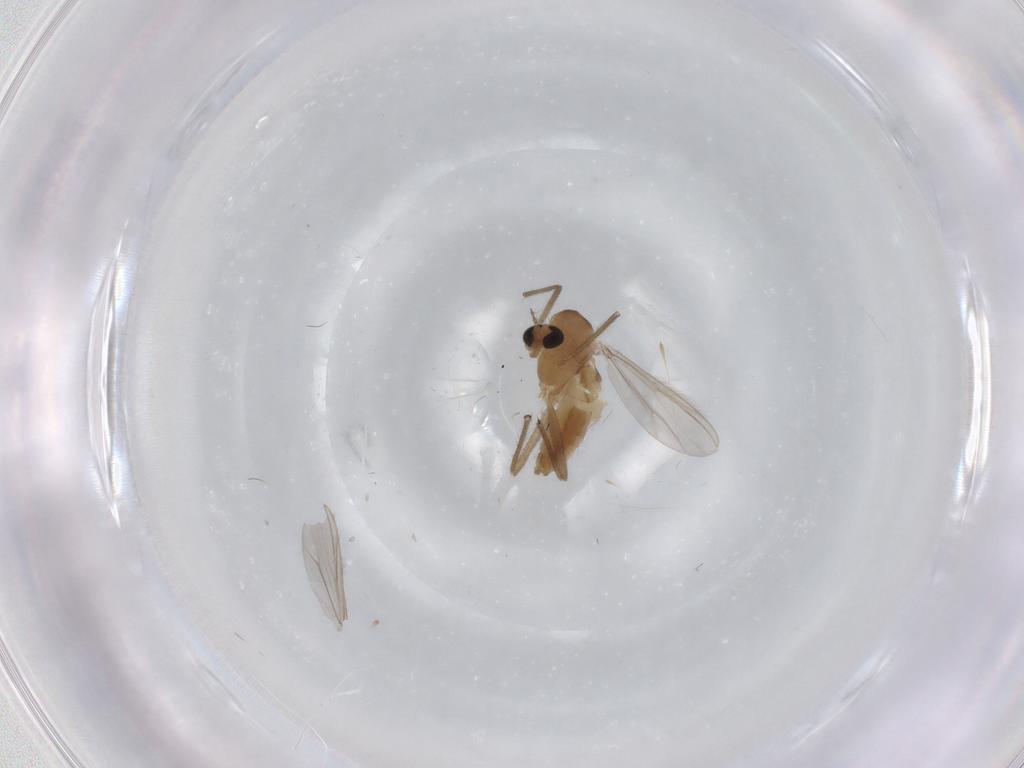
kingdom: Animalia
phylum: Arthropoda
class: Insecta
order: Diptera
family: Chironomidae
